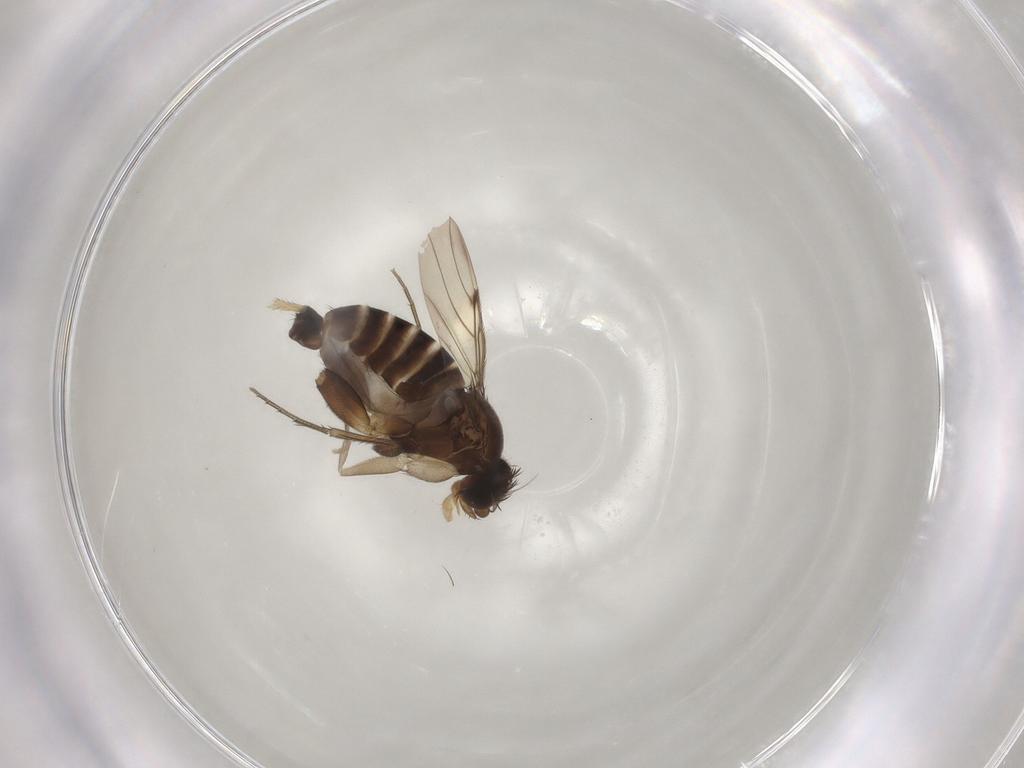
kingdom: Animalia
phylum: Arthropoda
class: Insecta
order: Diptera
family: Phoridae
